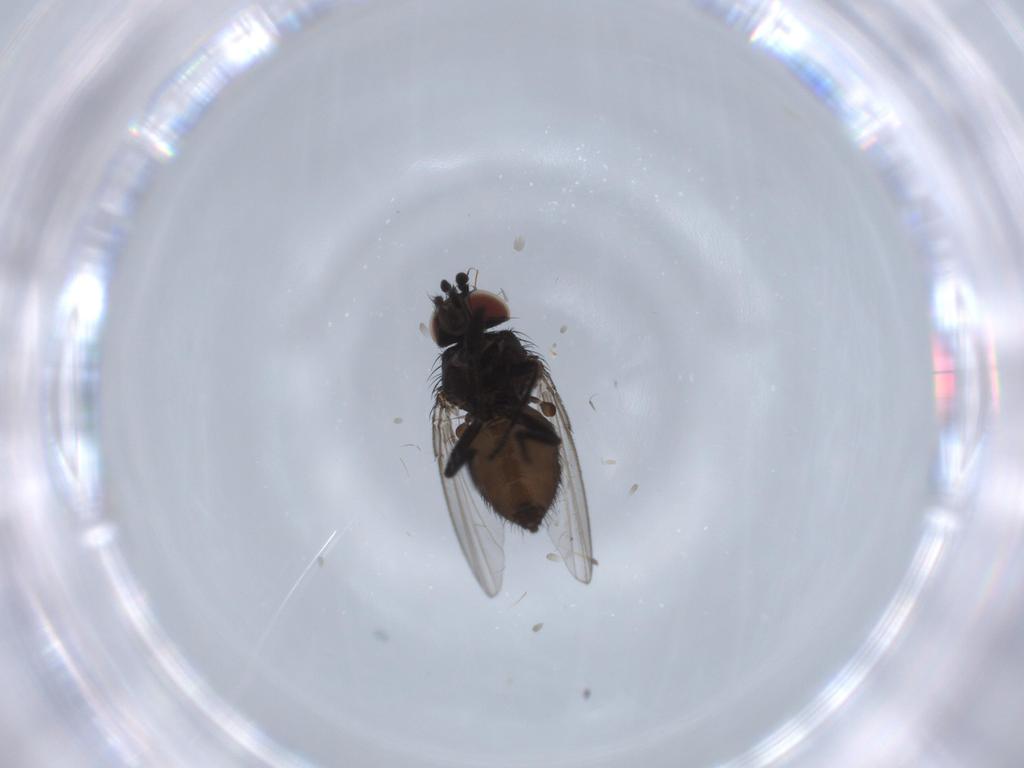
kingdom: Animalia
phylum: Arthropoda
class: Insecta
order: Diptera
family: Milichiidae
